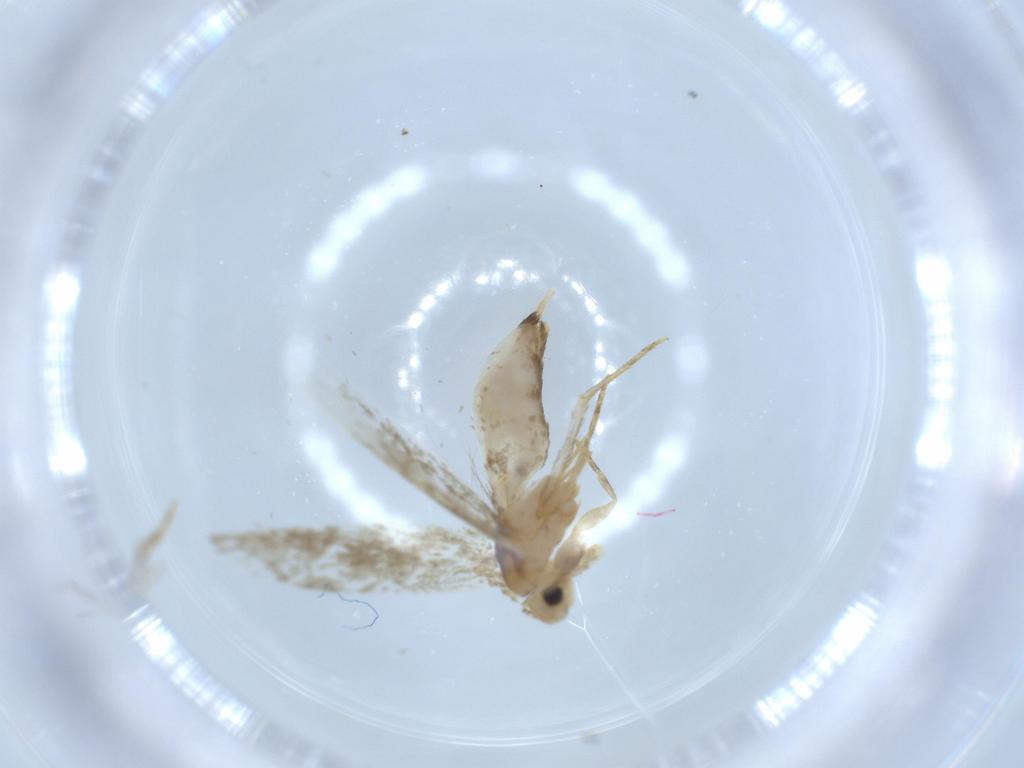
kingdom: Animalia
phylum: Arthropoda
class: Insecta
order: Lepidoptera
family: Tineidae
